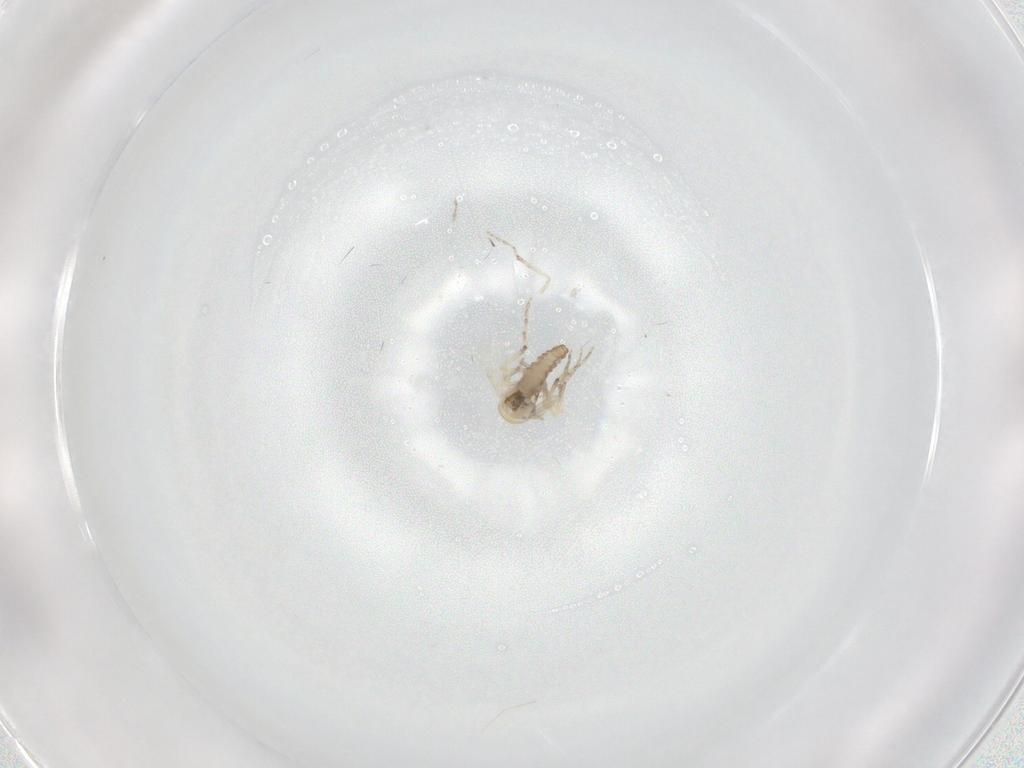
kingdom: Animalia
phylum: Arthropoda
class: Insecta
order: Diptera
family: Ceratopogonidae
